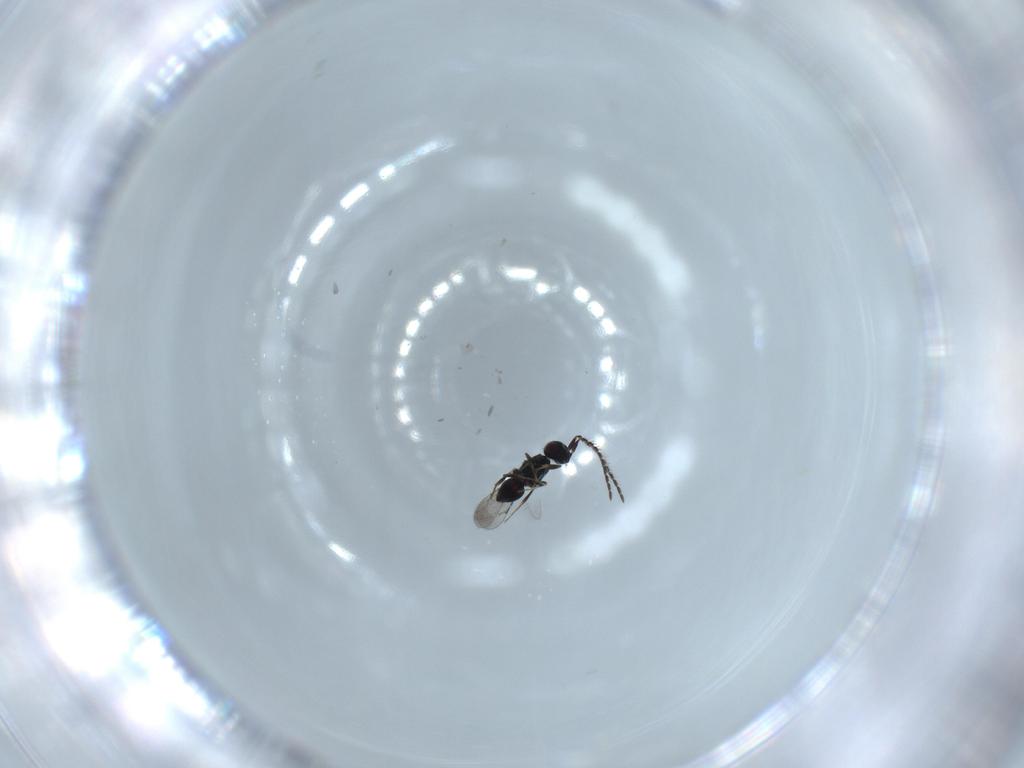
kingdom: Animalia
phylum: Arthropoda
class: Insecta
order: Diptera
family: Sciaridae
